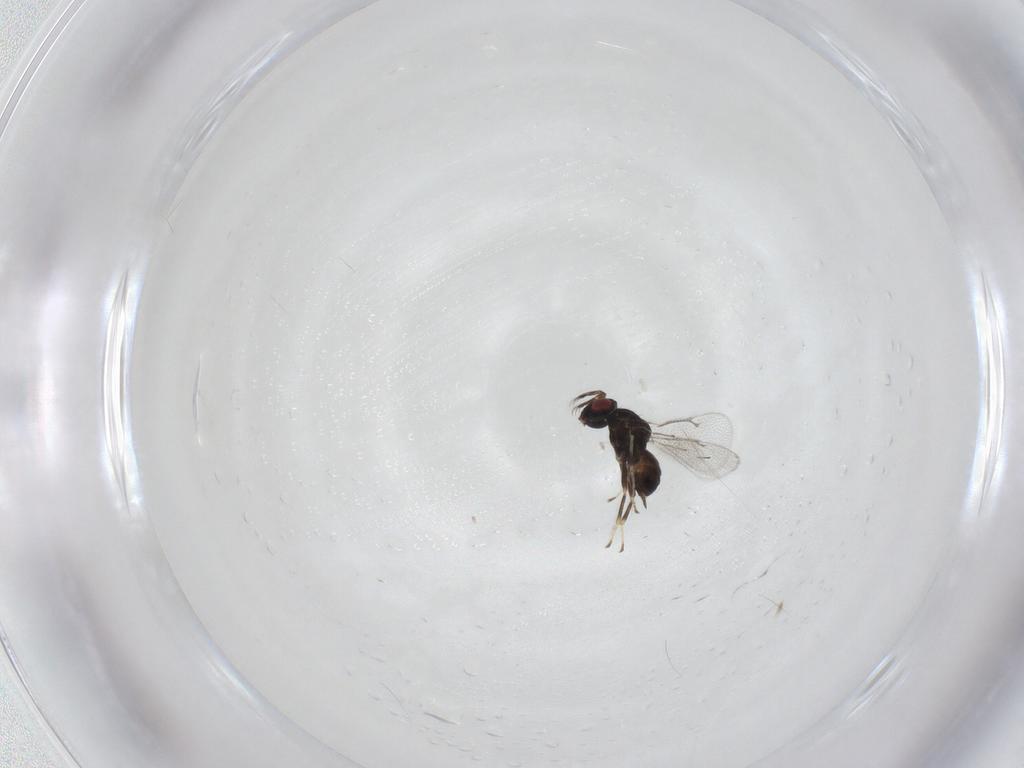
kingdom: Animalia
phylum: Arthropoda
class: Insecta
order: Hymenoptera
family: Eulophidae
